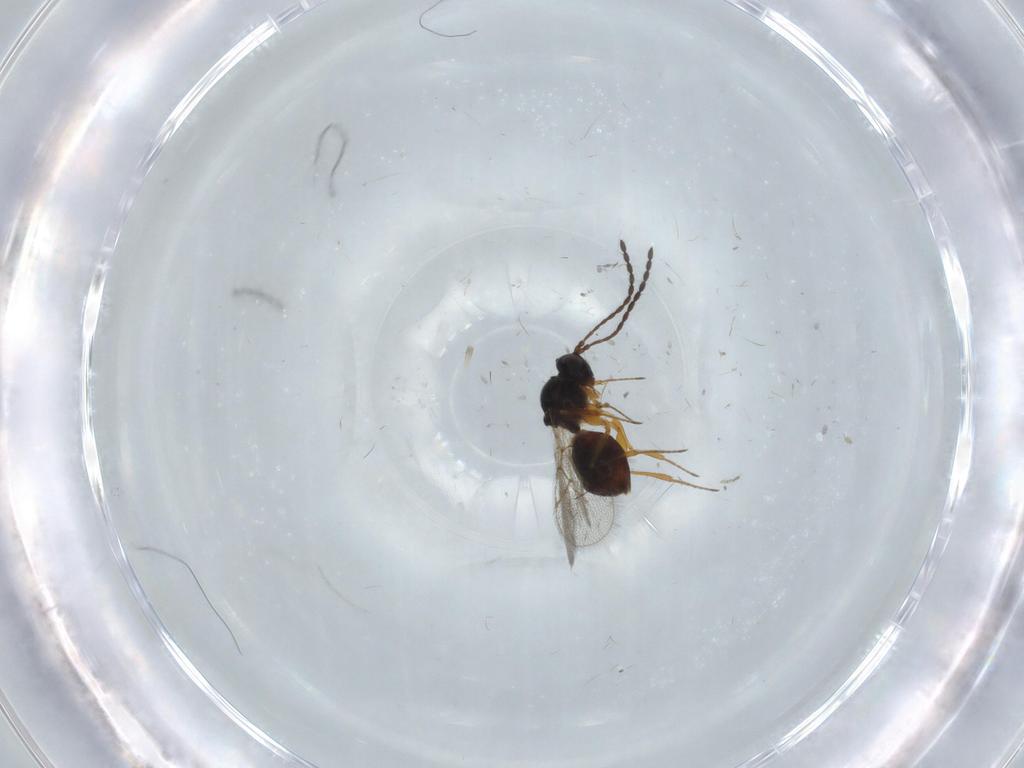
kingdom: Animalia
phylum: Arthropoda
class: Insecta
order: Hymenoptera
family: Figitidae
